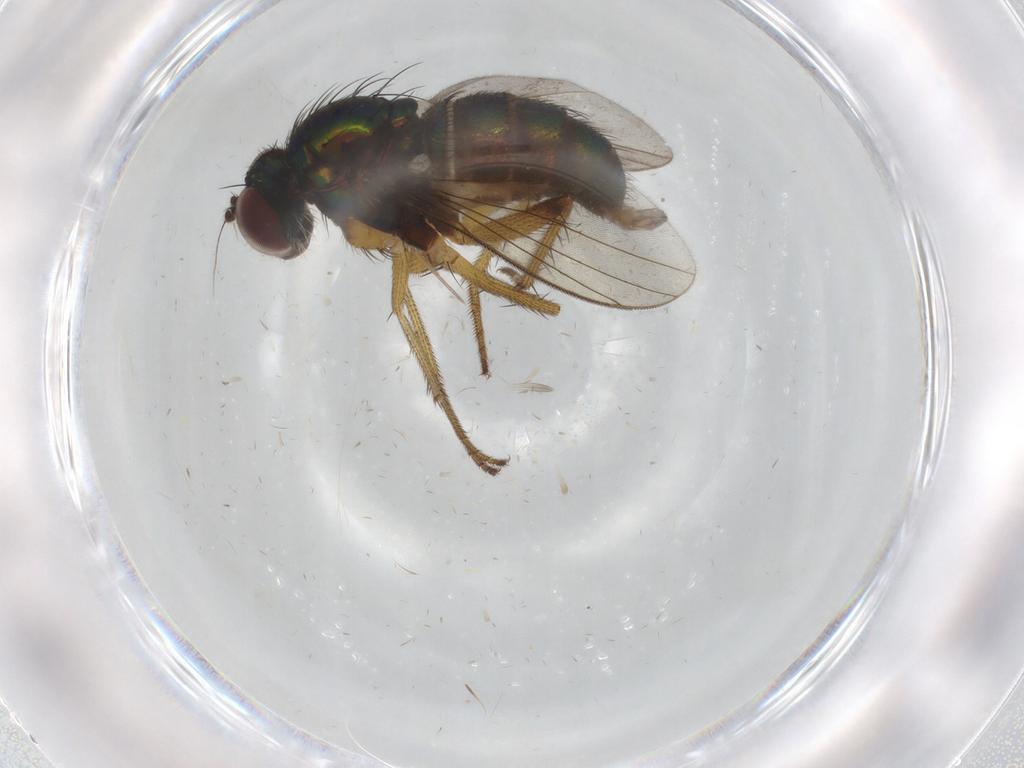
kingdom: Animalia
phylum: Arthropoda
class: Insecta
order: Diptera
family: Dolichopodidae
